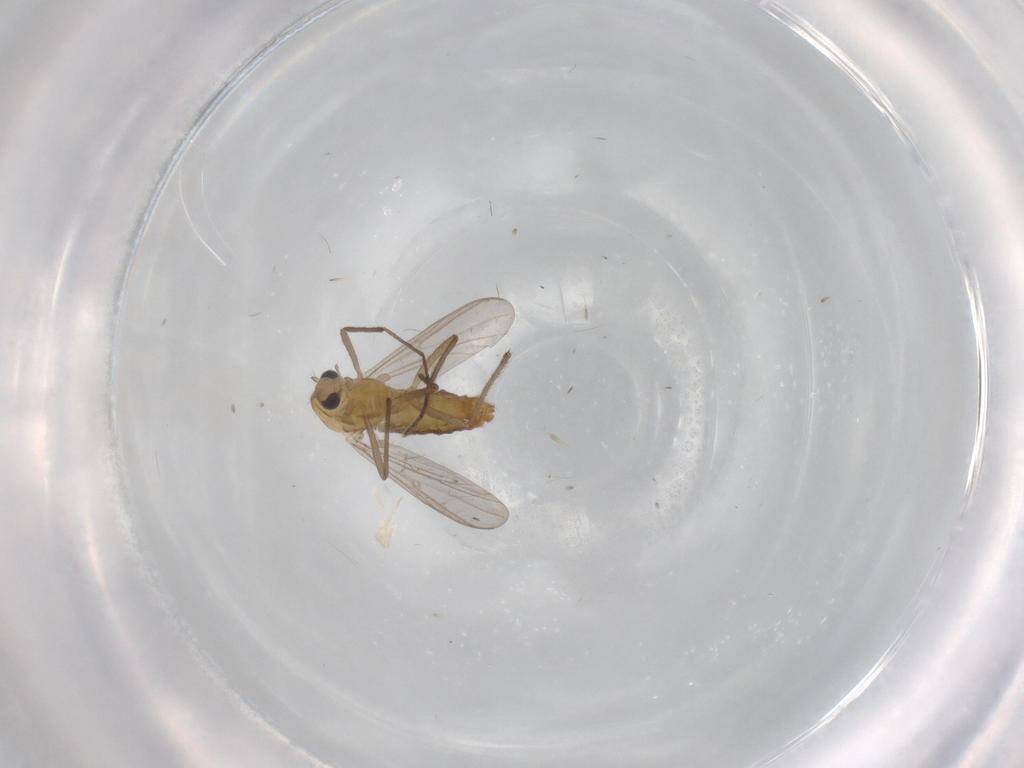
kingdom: Animalia
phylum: Arthropoda
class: Insecta
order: Diptera
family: Chironomidae
